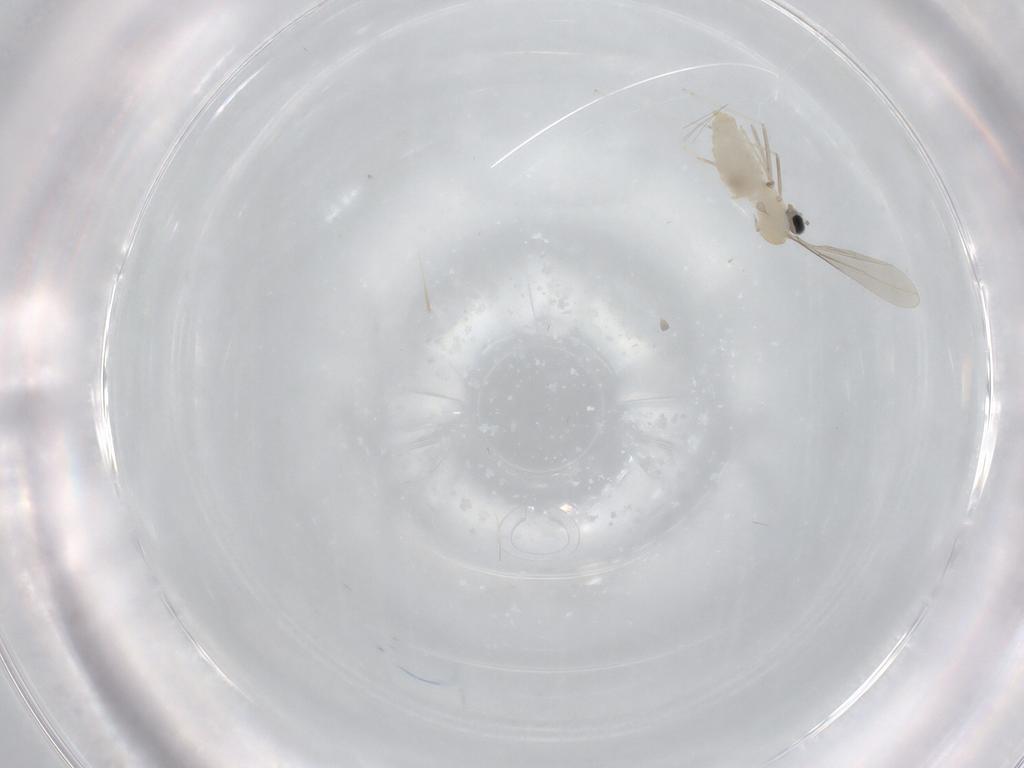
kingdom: Animalia
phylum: Arthropoda
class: Insecta
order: Diptera
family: Cecidomyiidae
